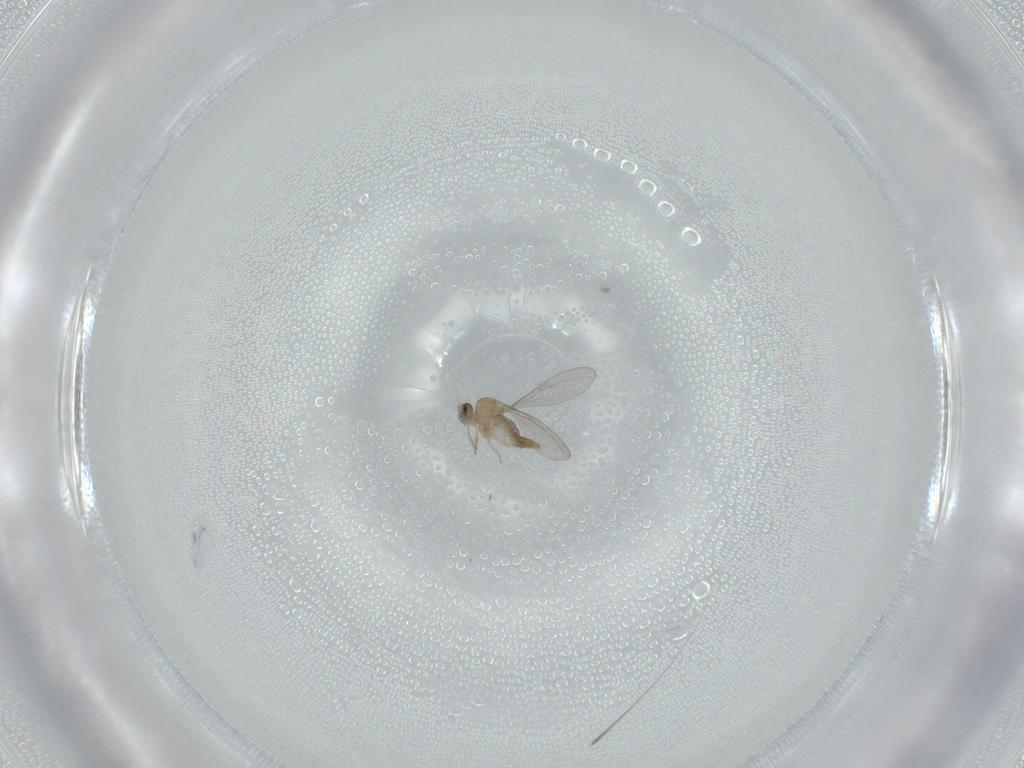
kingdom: Animalia
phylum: Arthropoda
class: Insecta
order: Diptera
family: Cecidomyiidae
